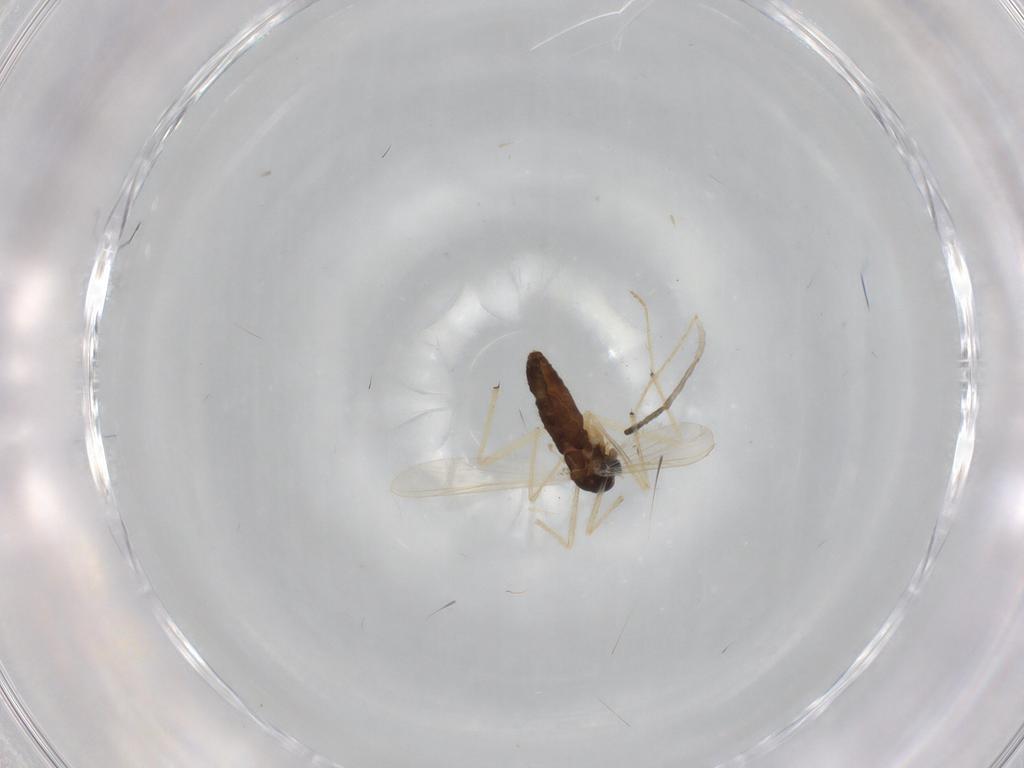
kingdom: Animalia
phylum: Arthropoda
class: Insecta
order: Diptera
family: Chironomidae
